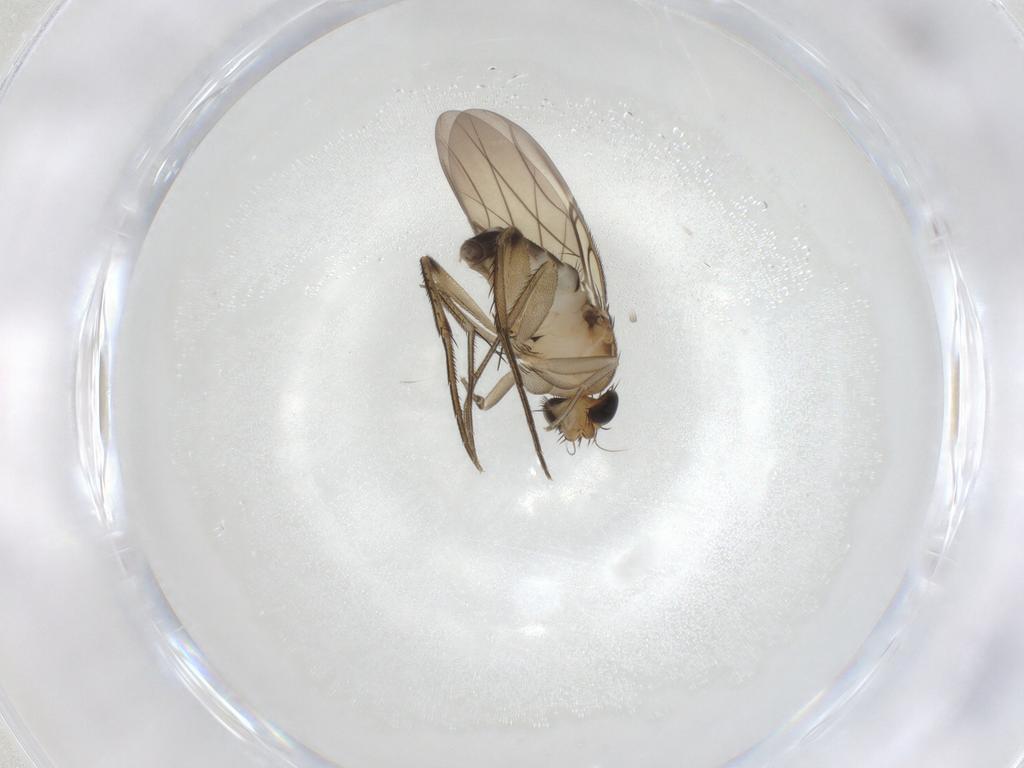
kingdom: Animalia
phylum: Arthropoda
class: Insecta
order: Diptera
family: Phoridae
